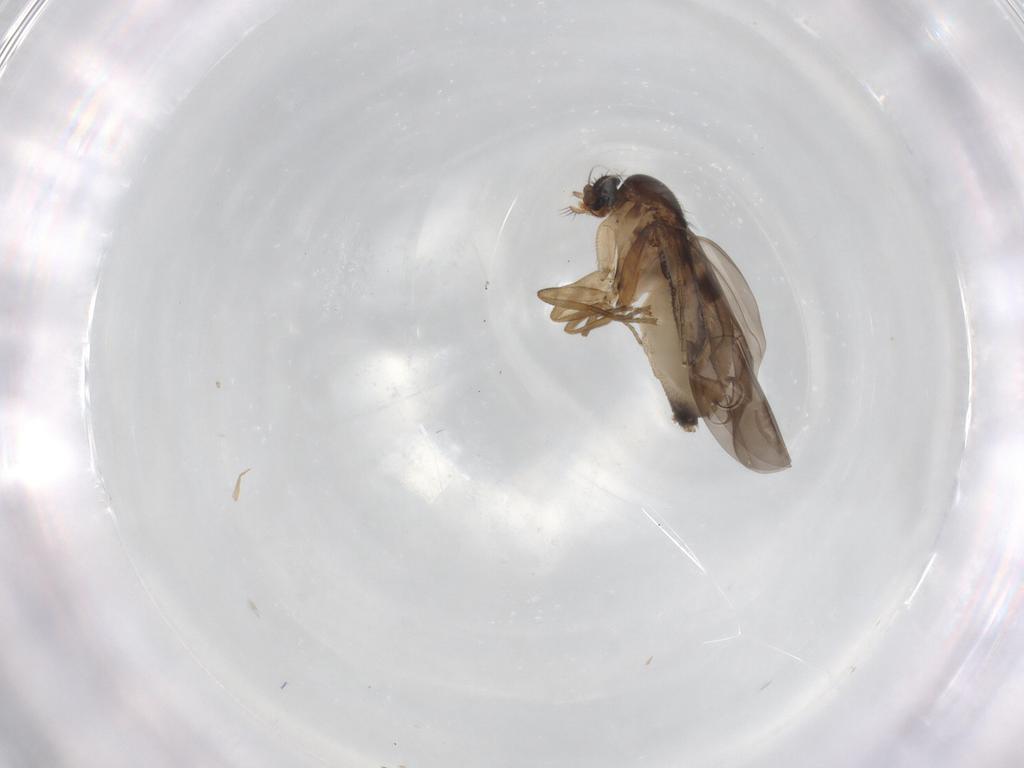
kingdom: Animalia
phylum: Arthropoda
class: Insecta
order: Diptera
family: Phoridae
